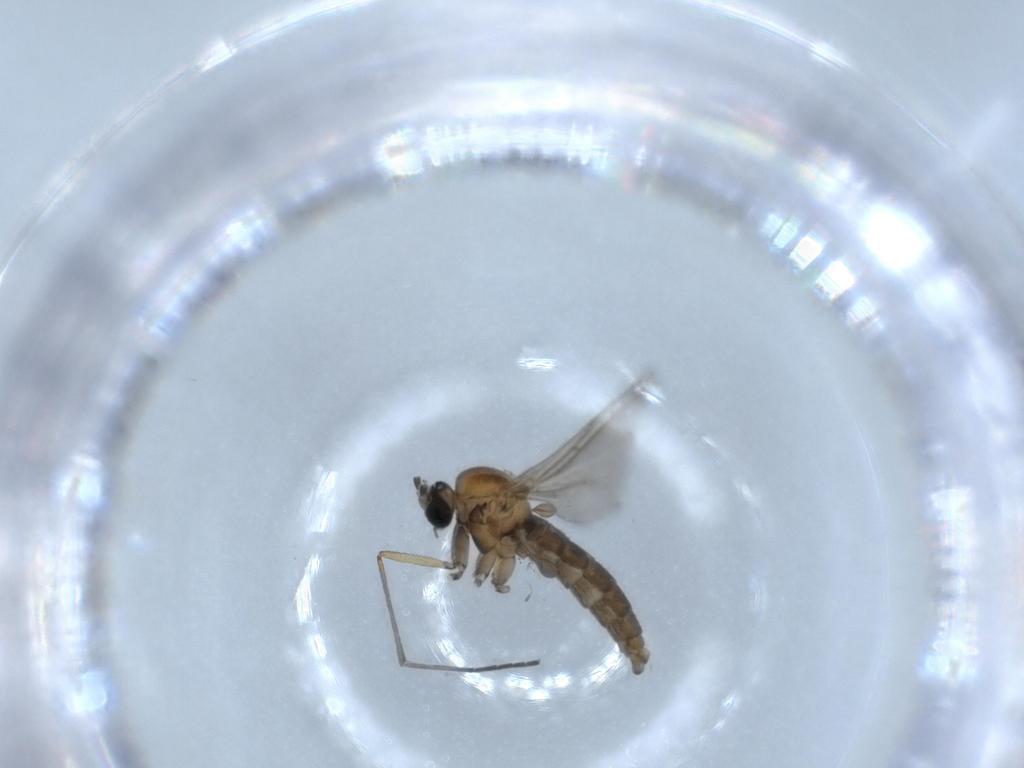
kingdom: Animalia
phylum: Arthropoda
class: Insecta
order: Diptera
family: Sciaridae
